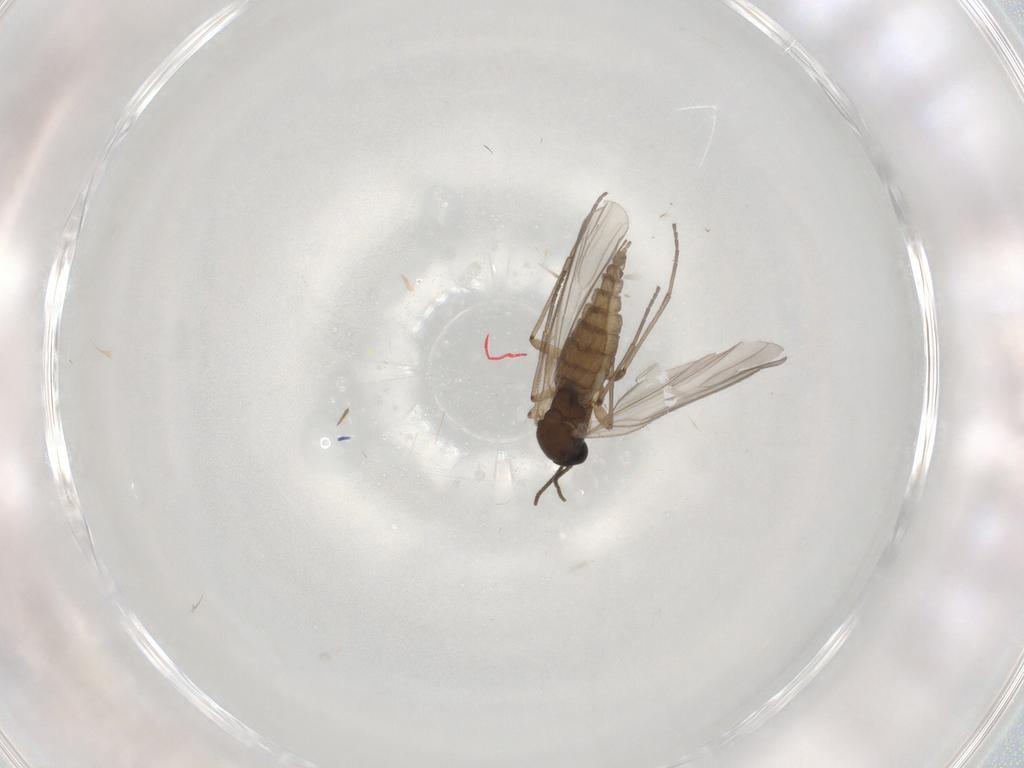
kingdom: Animalia
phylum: Arthropoda
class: Insecta
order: Diptera
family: Sciaridae
